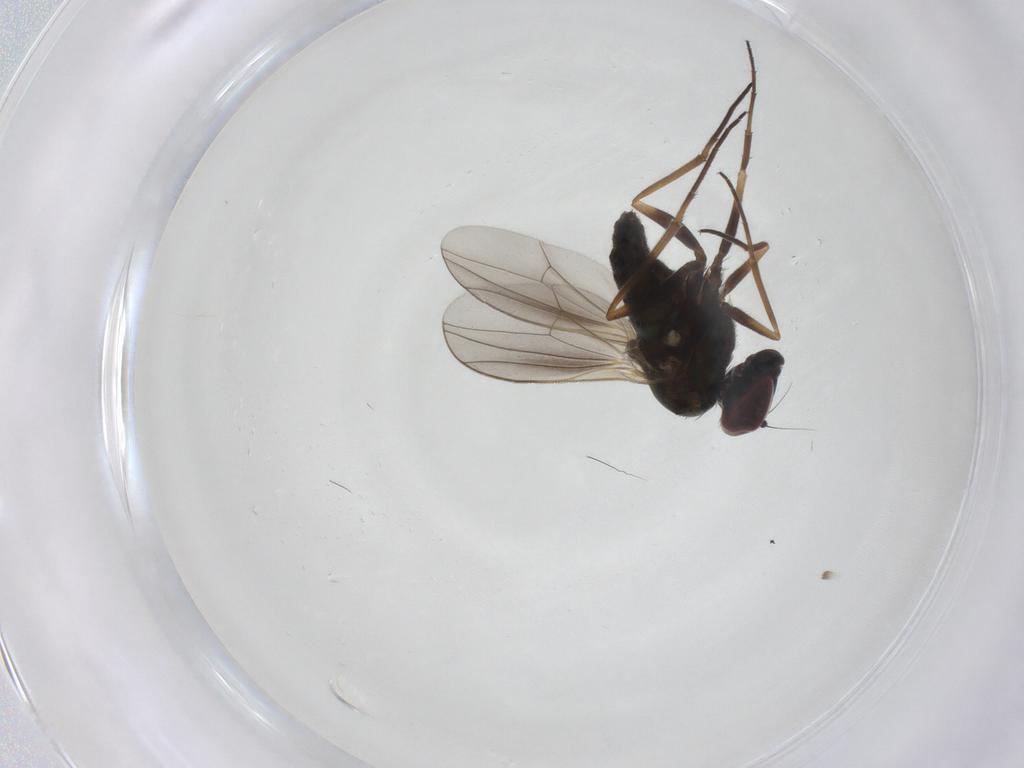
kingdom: Animalia
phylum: Arthropoda
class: Insecta
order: Diptera
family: Dolichopodidae
